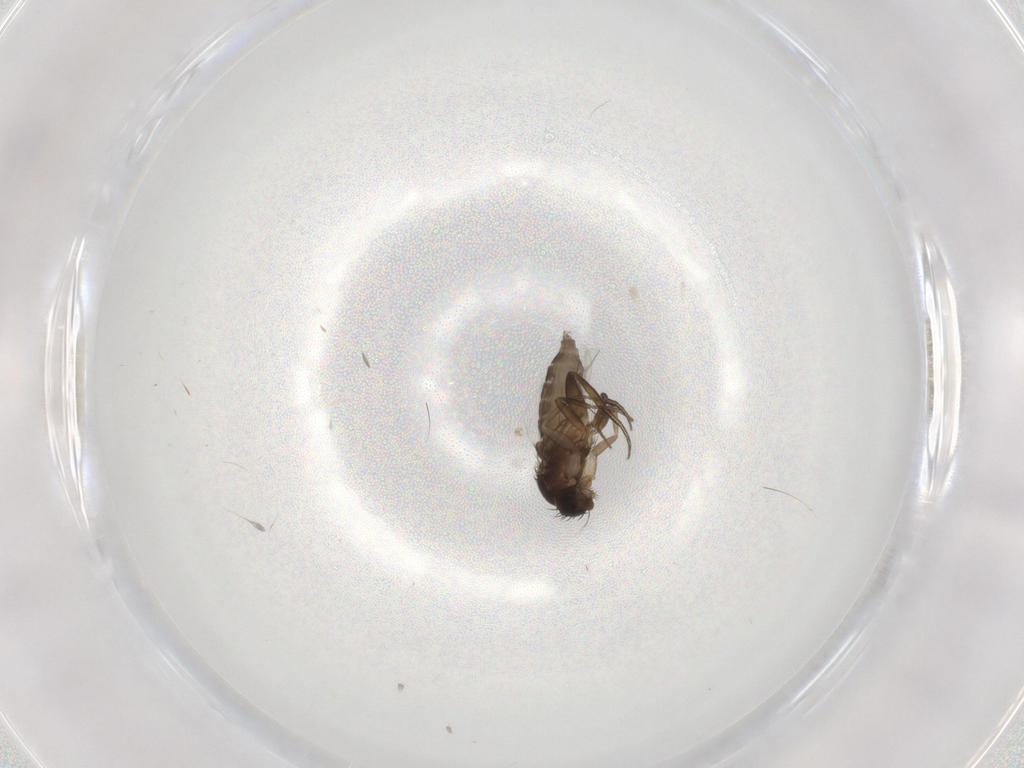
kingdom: Animalia
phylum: Arthropoda
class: Insecta
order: Diptera
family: Phoridae
